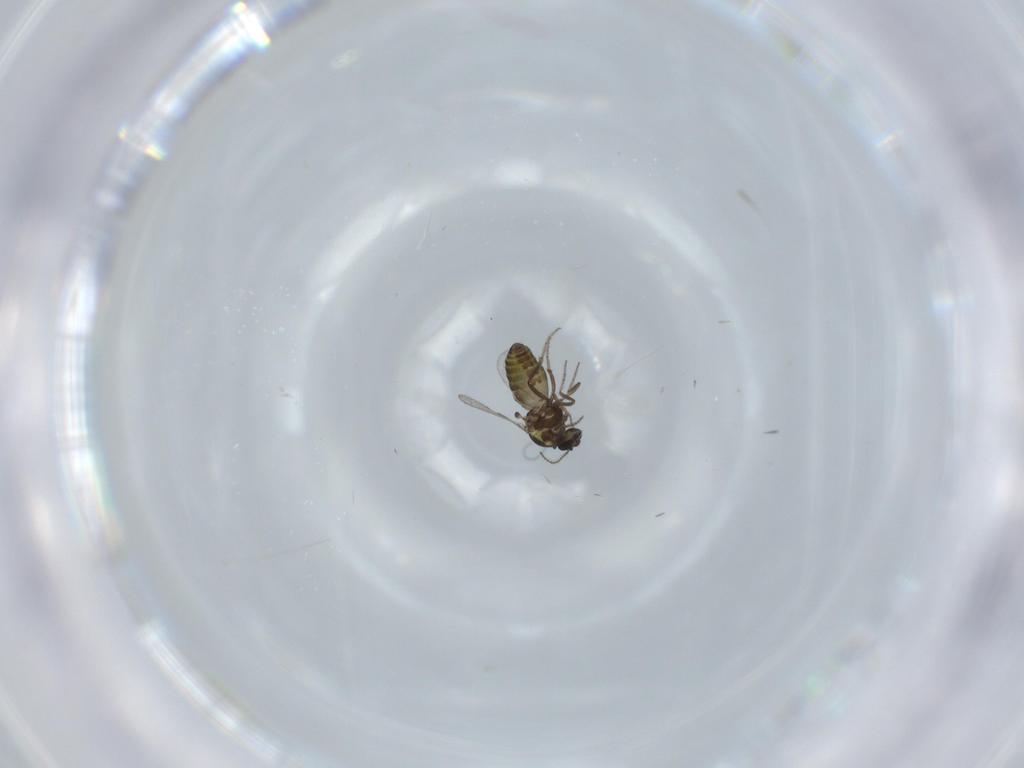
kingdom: Animalia
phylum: Arthropoda
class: Insecta
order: Diptera
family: Ceratopogonidae
